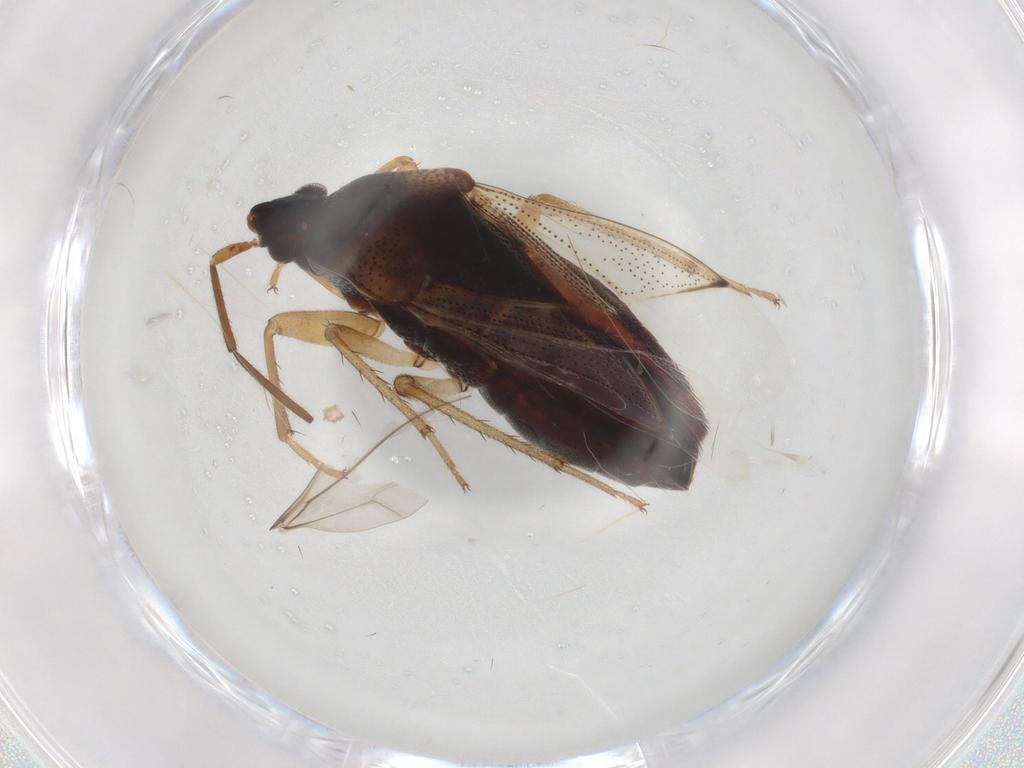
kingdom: Animalia
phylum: Arthropoda
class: Insecta
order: Hemiptera
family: Rhyparochromidae
